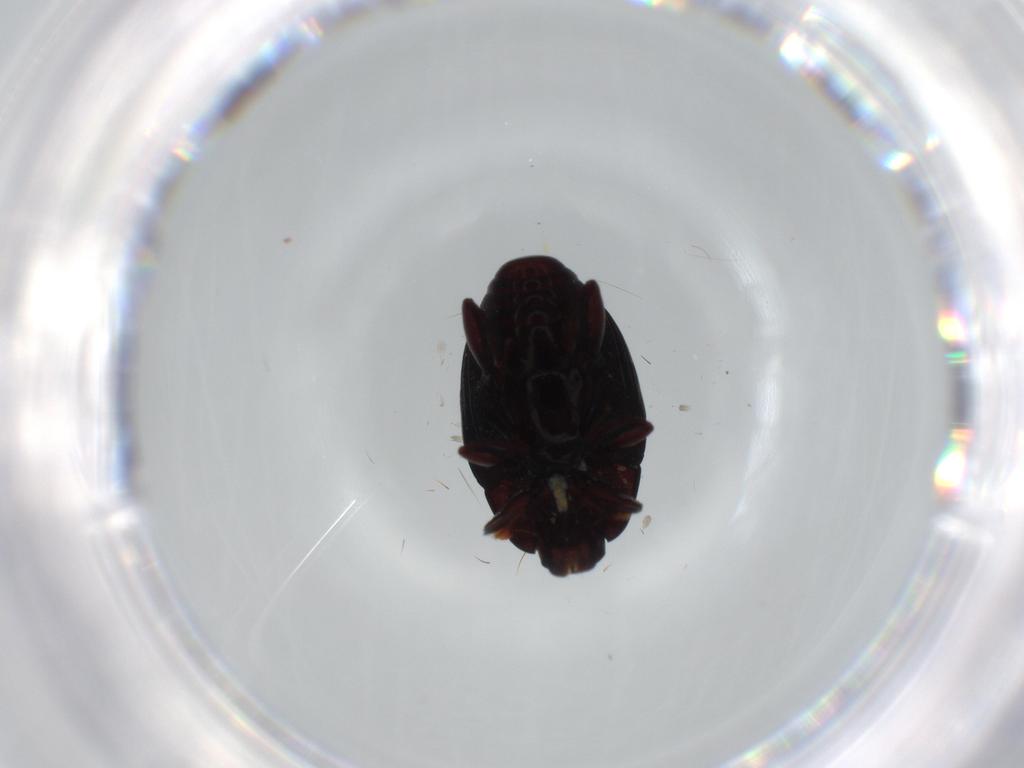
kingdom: Animalia
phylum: Arthropoda
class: Insecta
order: Coleoptera
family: Histeridae
